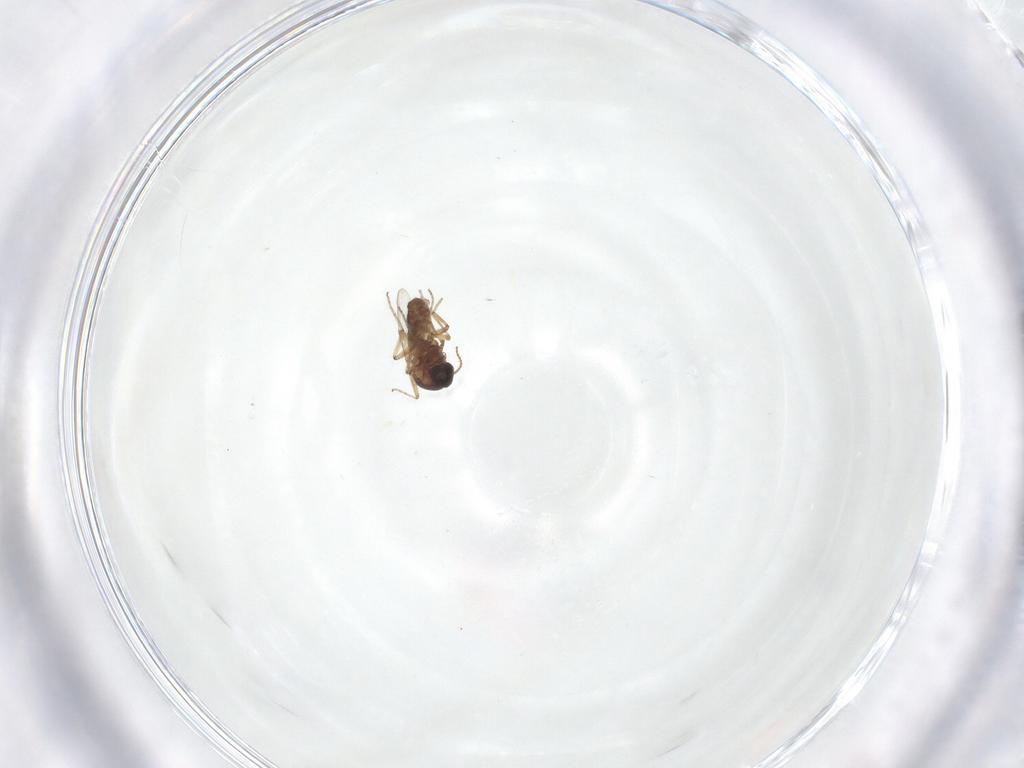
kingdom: Animalia
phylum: Arthropoda
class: Insecta
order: Diptera
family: Ceratopogonidae
